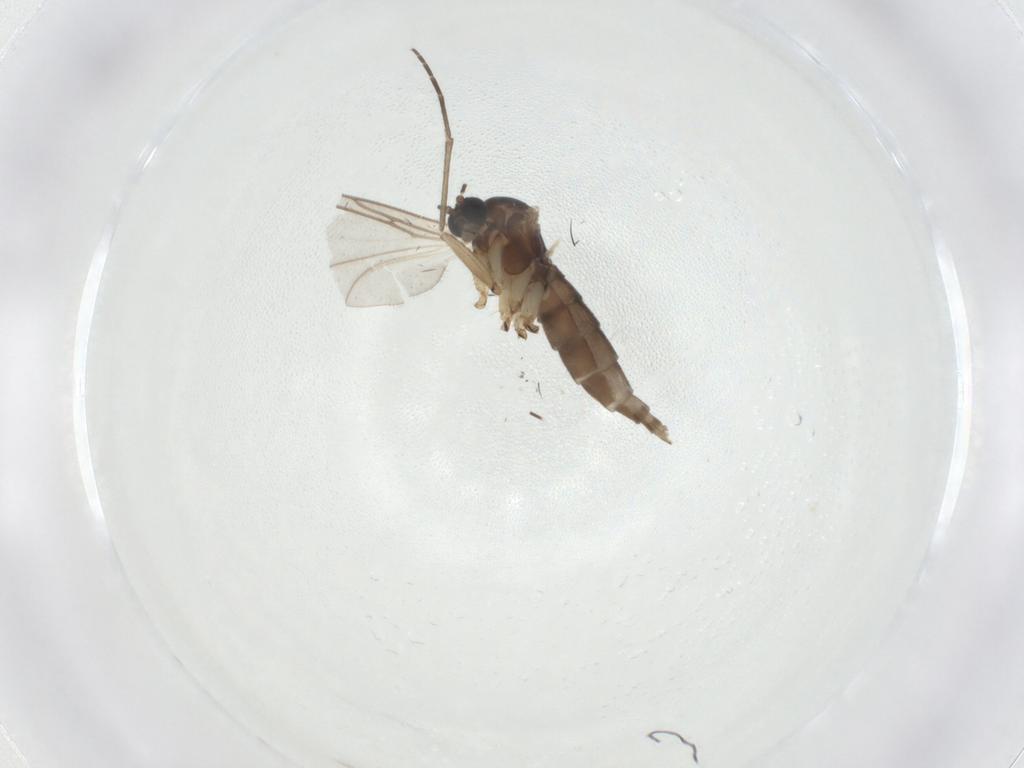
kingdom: Animalia
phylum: Arthropoda
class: Insecta
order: Diptera
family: Sciaridae
